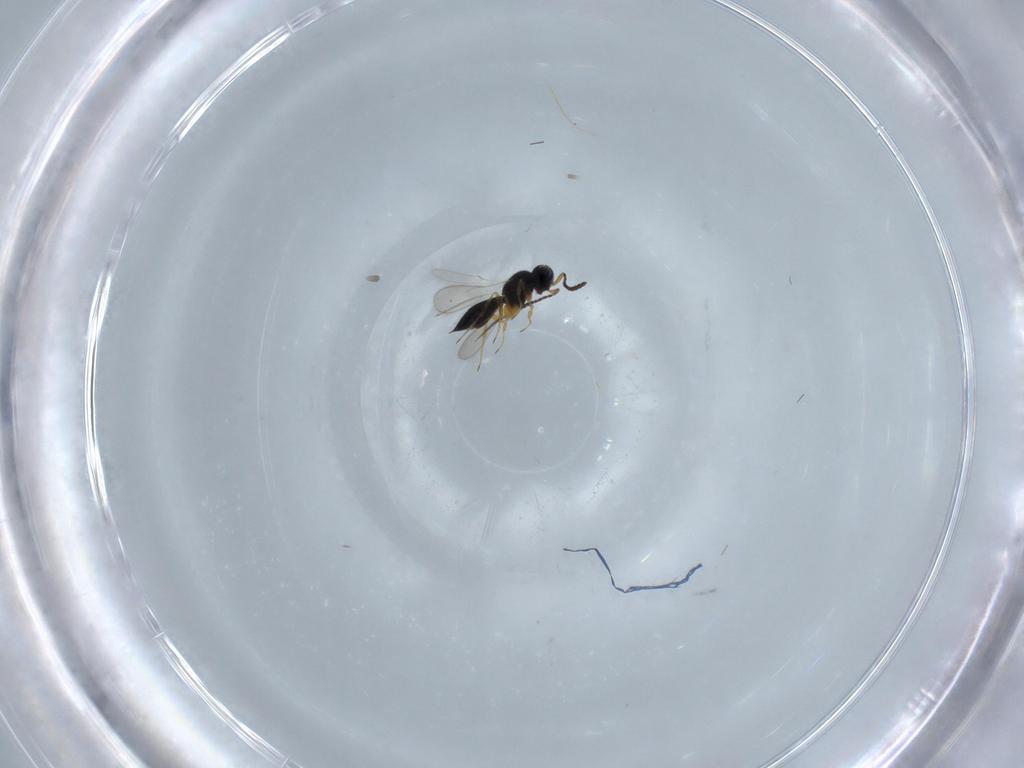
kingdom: Animalia
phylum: Arthropoda
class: Insecta
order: Hymenoptera
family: Scelionidae
